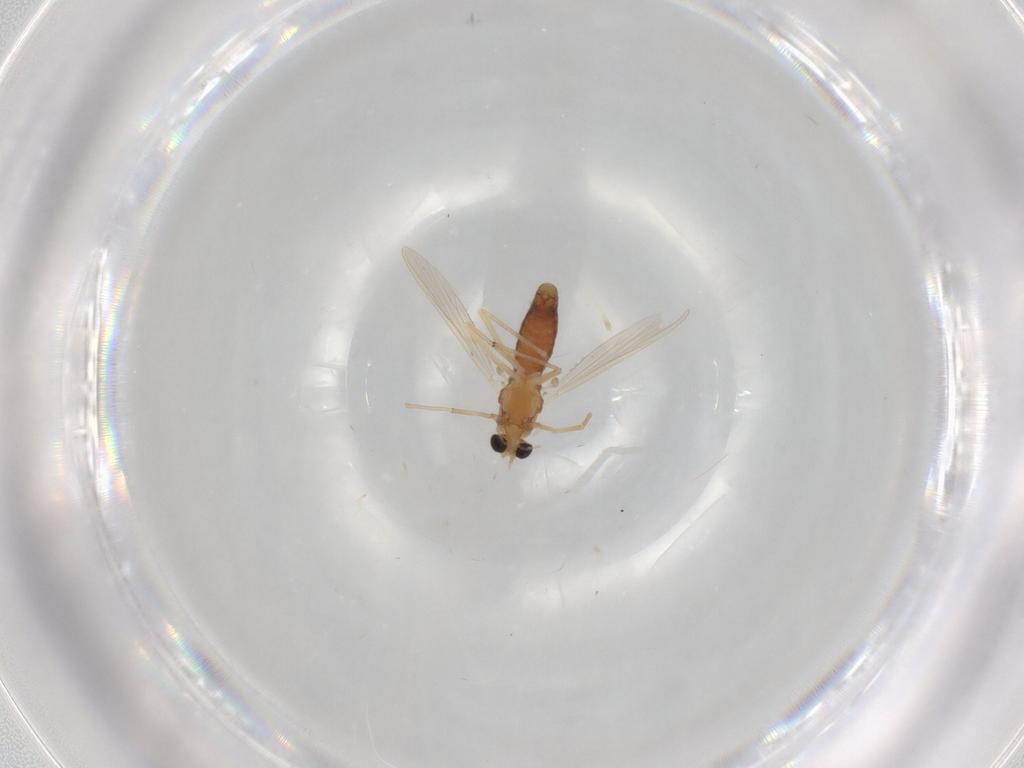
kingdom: Animalia
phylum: Arthropoda
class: Insecta
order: Diptera
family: Chironomidae
